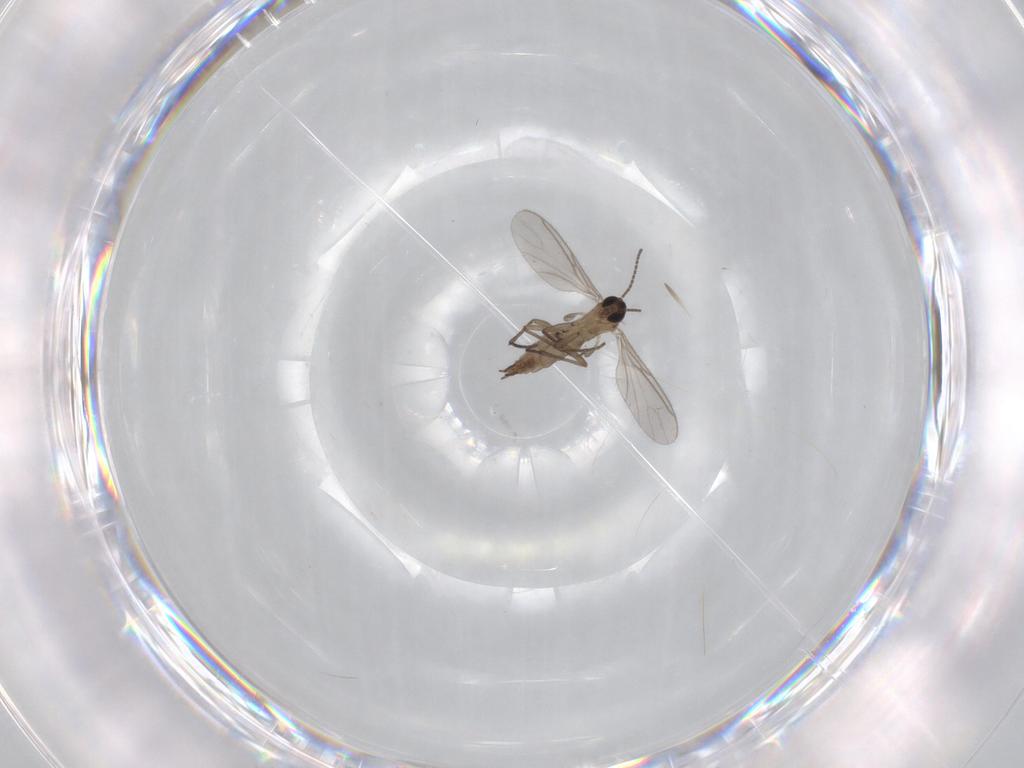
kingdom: Animalia
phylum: Arthropoda
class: Insecta
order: Diptera
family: Sciaridae
